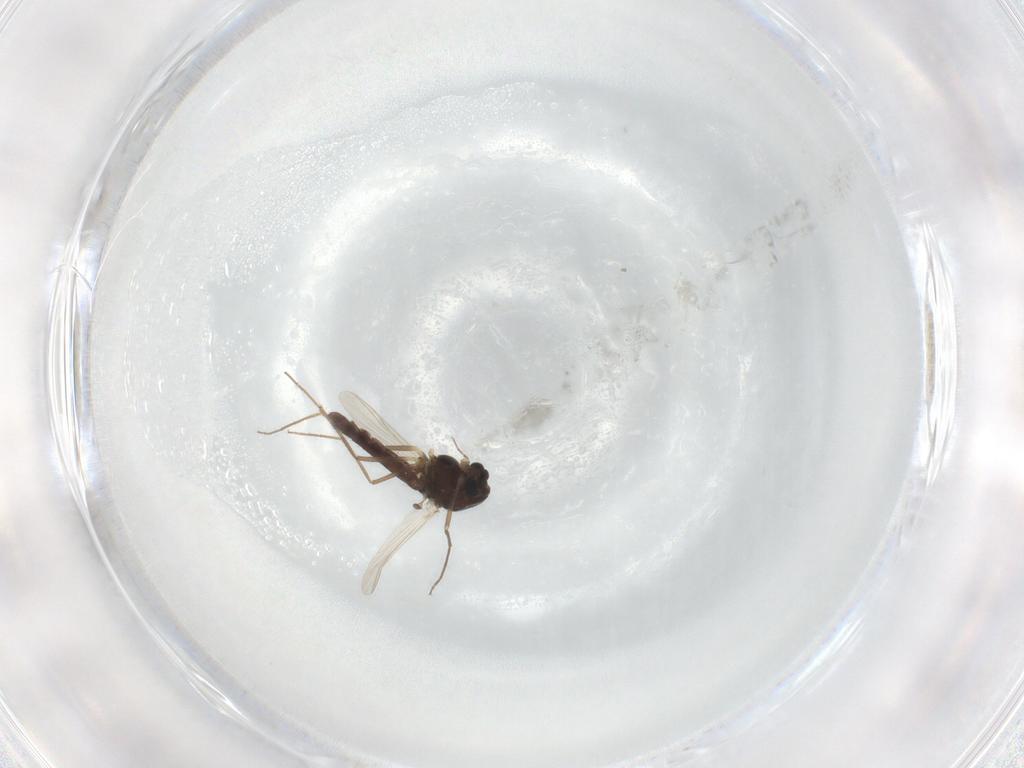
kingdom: Animalia
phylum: Arthropoda
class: Insecta
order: Diptera
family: Chironomidae
